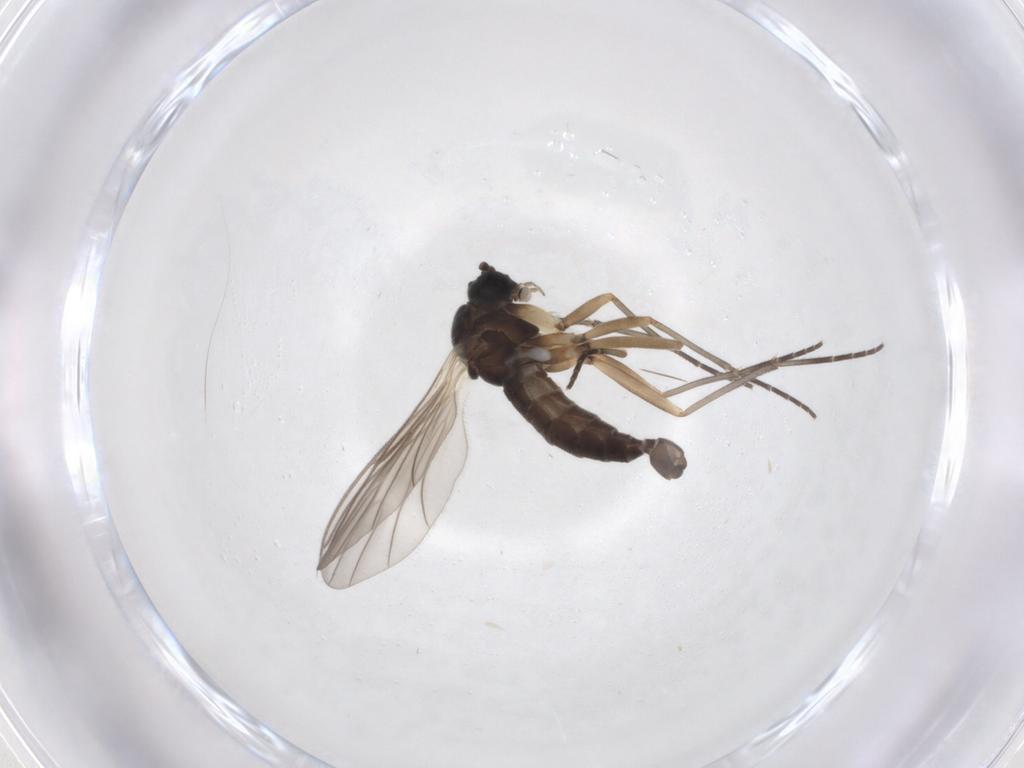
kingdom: Animalia
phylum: Arthropoda
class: Insecta
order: Diptera
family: Sciaridae
